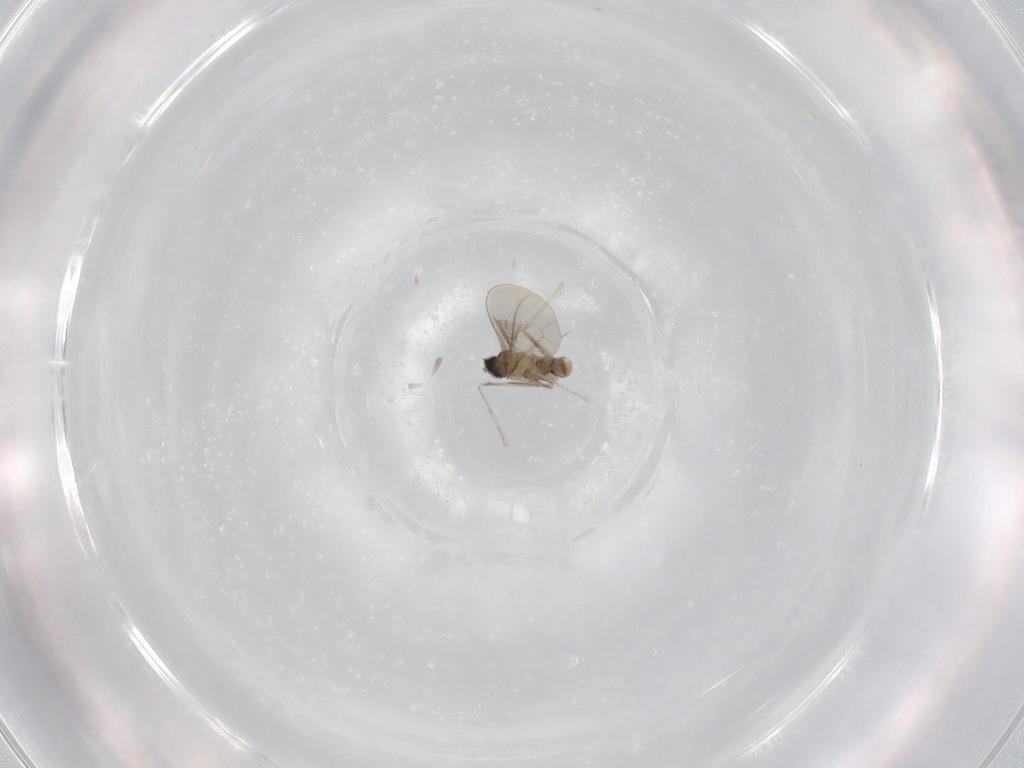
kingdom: Animalia
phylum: Arthropoda
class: Insecta
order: Diptera
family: Cecidomyiidae
